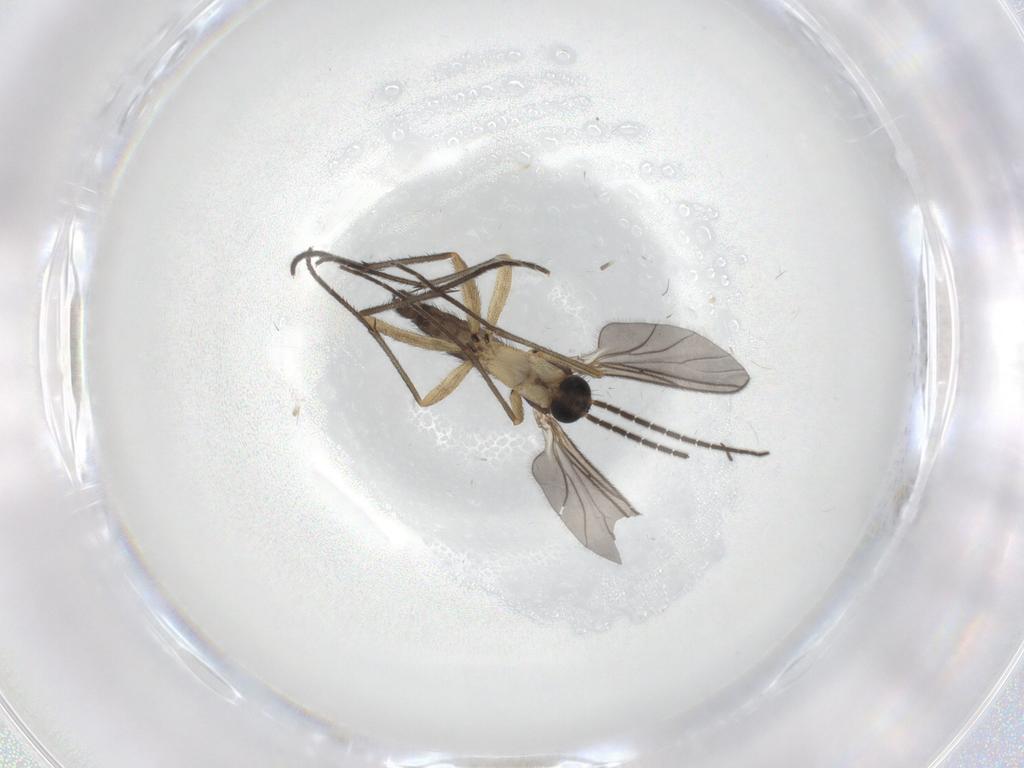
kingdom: Animalia
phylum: Arthropoda
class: Insecta
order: Diptera
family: Sciaridae
